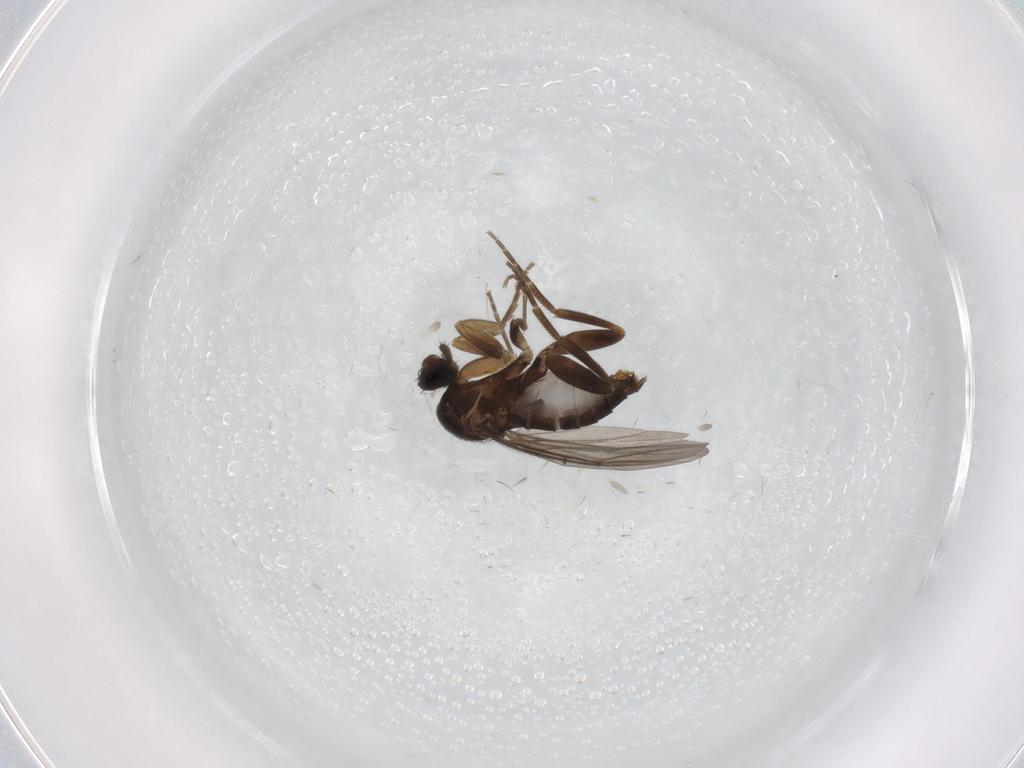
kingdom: Animalia
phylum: Arthropoda
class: Insecta
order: Diptera
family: Phoridae
